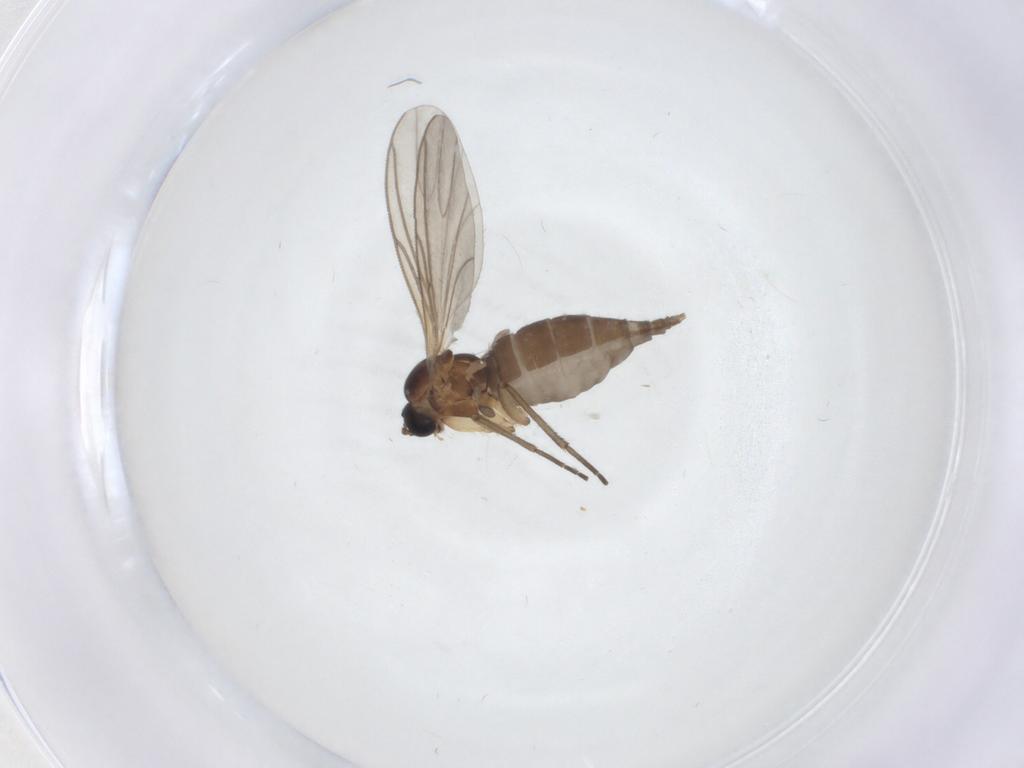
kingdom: Animalia
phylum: Arthropoda
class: Insecta
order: Diptera
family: Sciaridae
